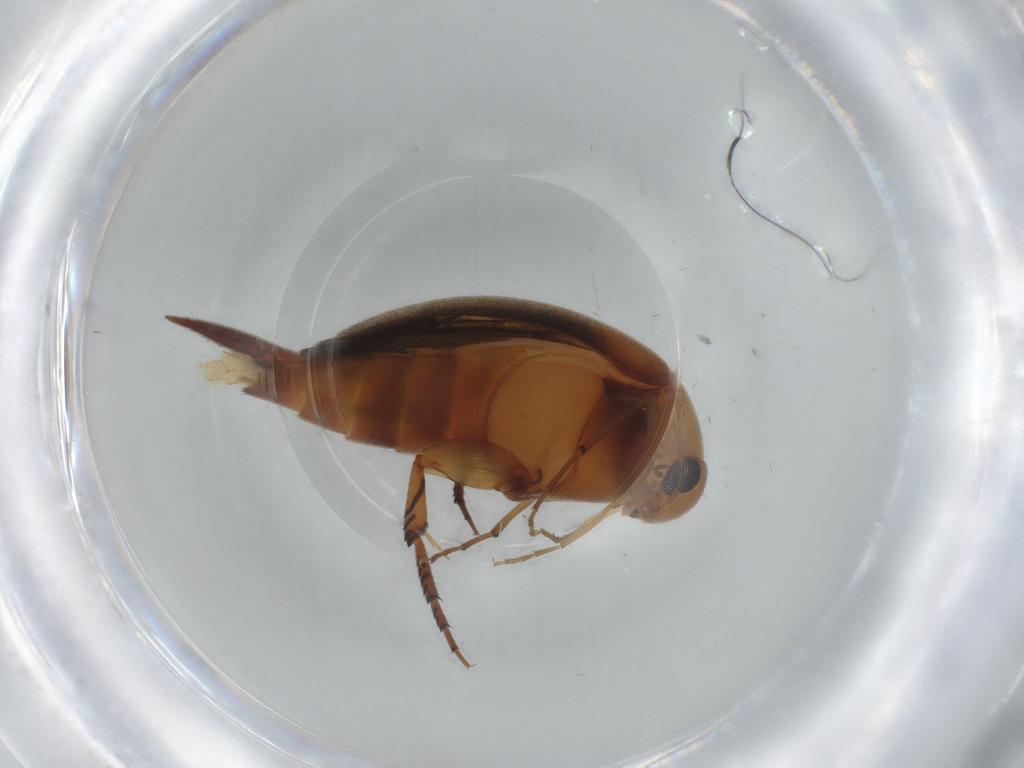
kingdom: Animalia
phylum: Arthropoda
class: Insecta
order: Coleoptera
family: Mordellidae
